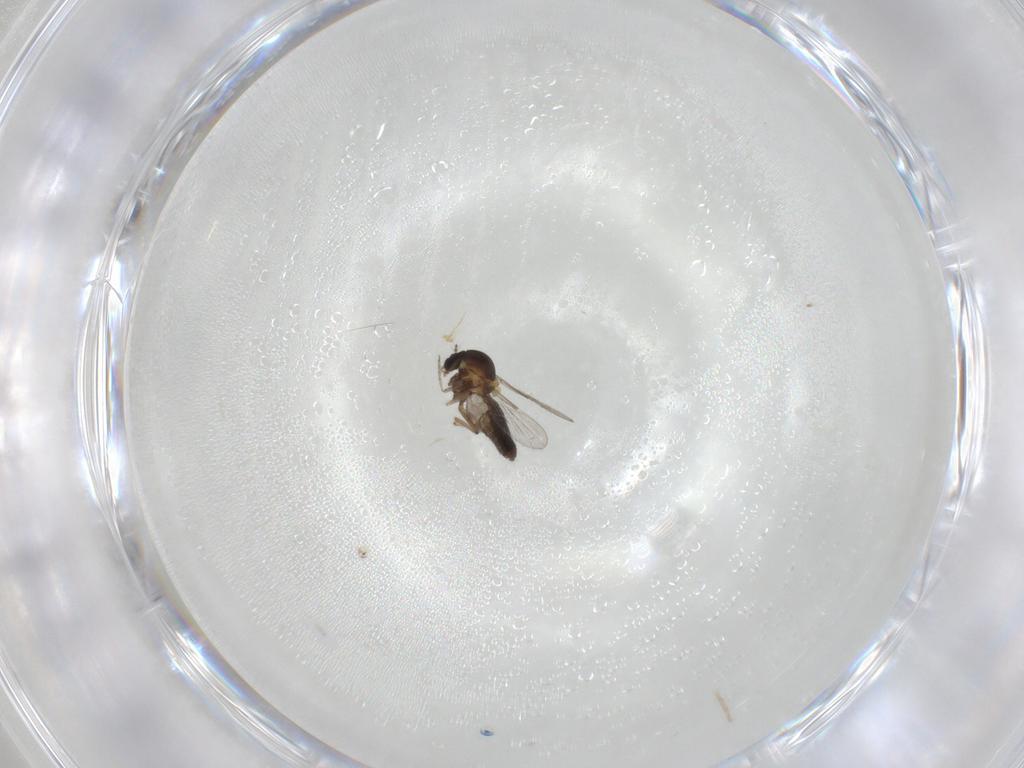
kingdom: Animalia
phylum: Arthropoda
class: Insecta
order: Diptera
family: Ceratopogonidae
